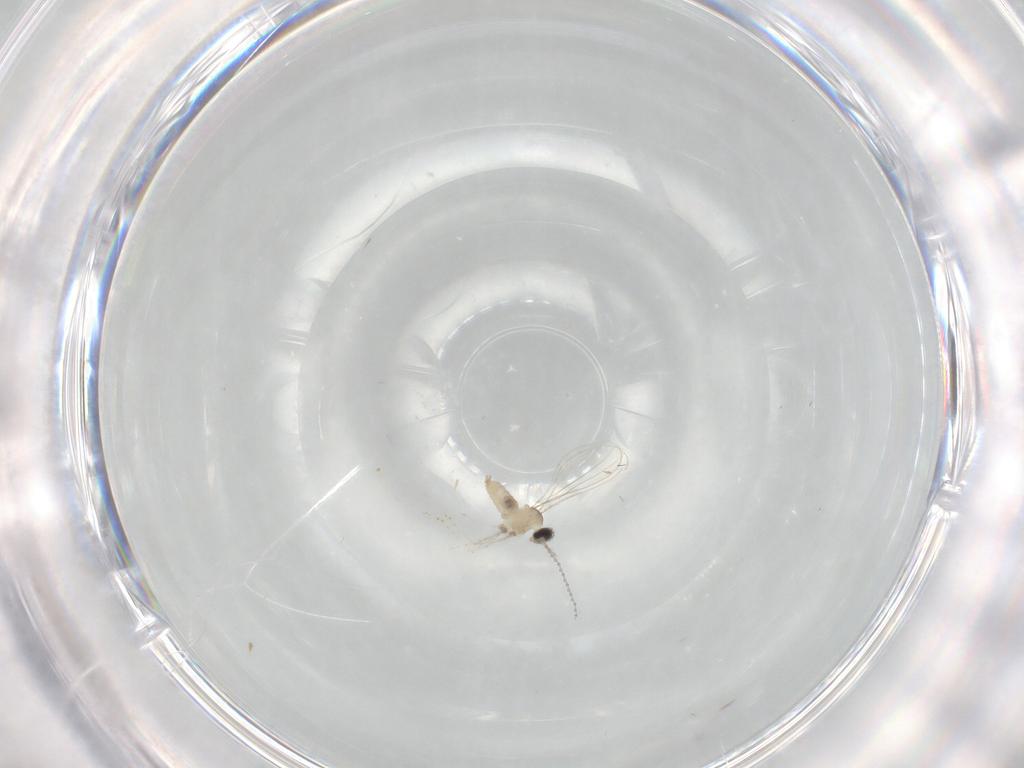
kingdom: Animalia
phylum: Arthropoda
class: Insecta
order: Diptera
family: Cecidomyiidae
